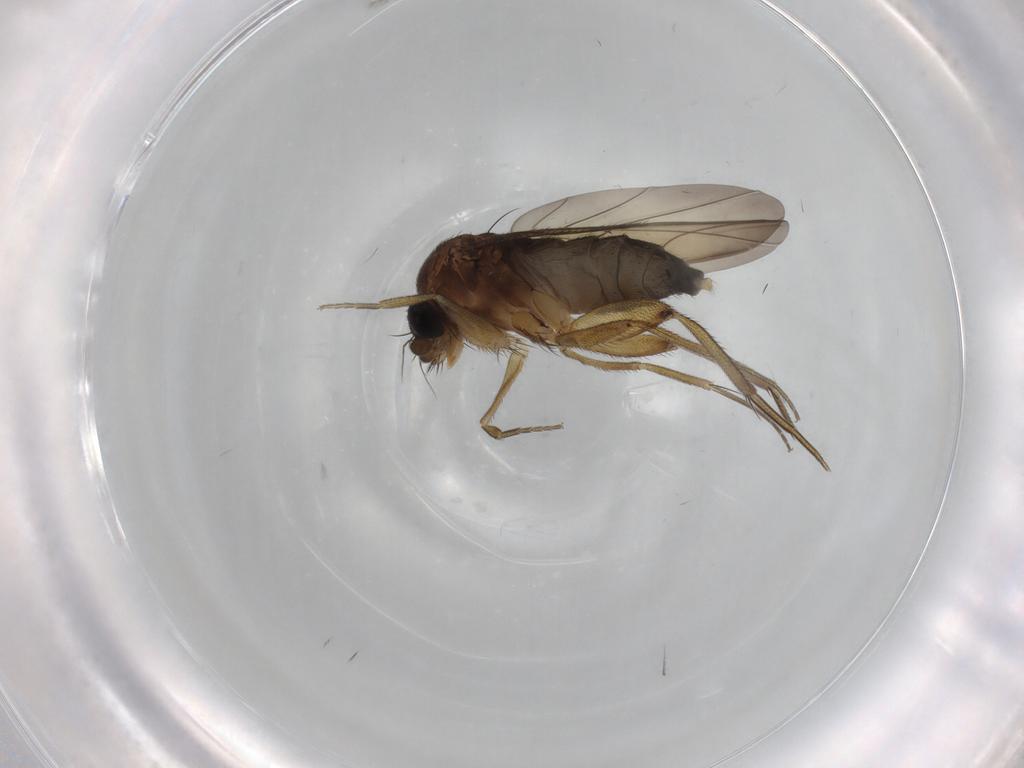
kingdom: Animalia
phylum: Arthropoda
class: Insecta
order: Diptera
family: Phoridae
